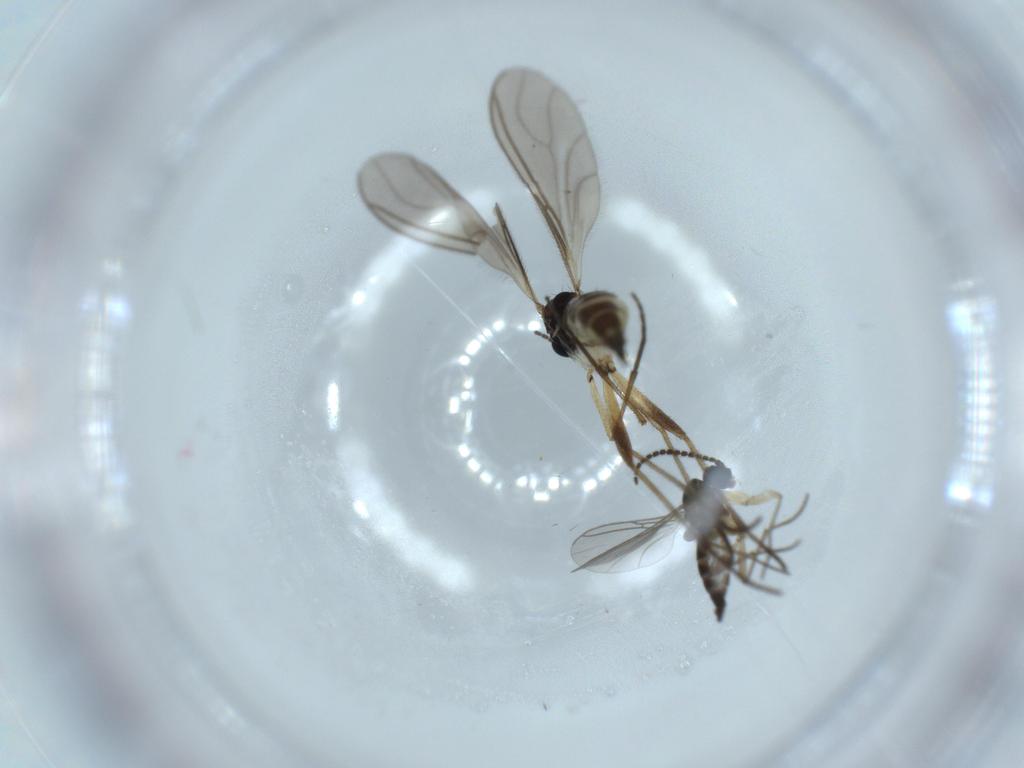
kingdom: Animalia
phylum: Arthropoda
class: Insecta
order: Diptera
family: Sciaridae
